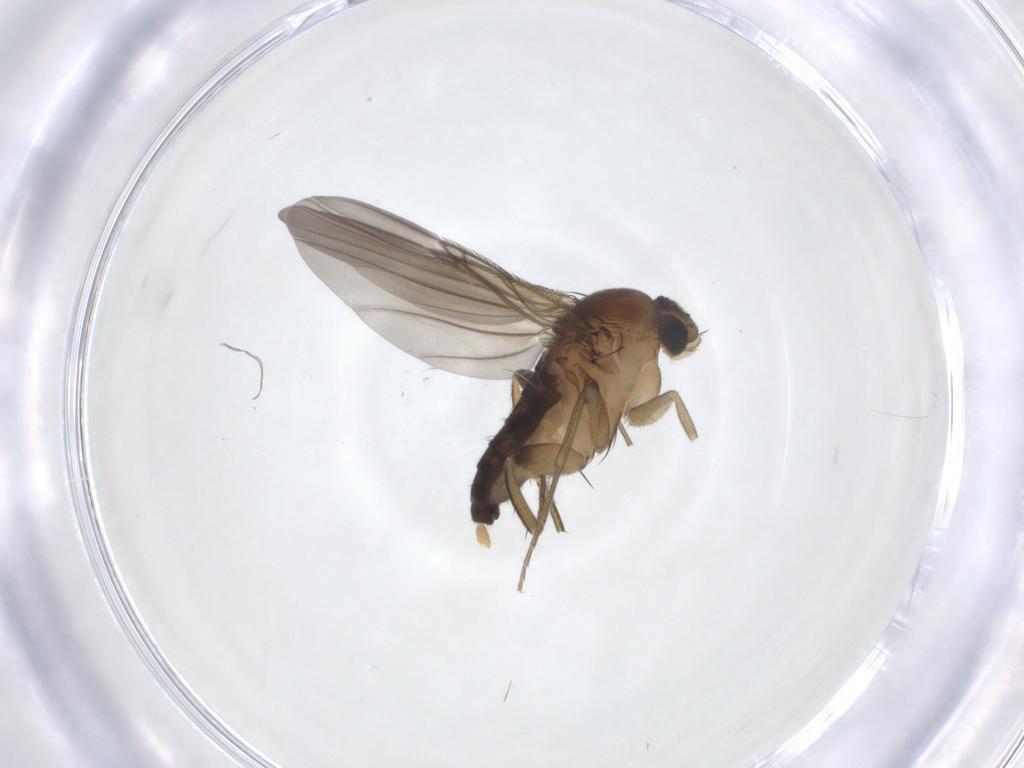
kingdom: Animalia
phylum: Arthropoda
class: Insecta
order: Diptera
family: Phoridae
